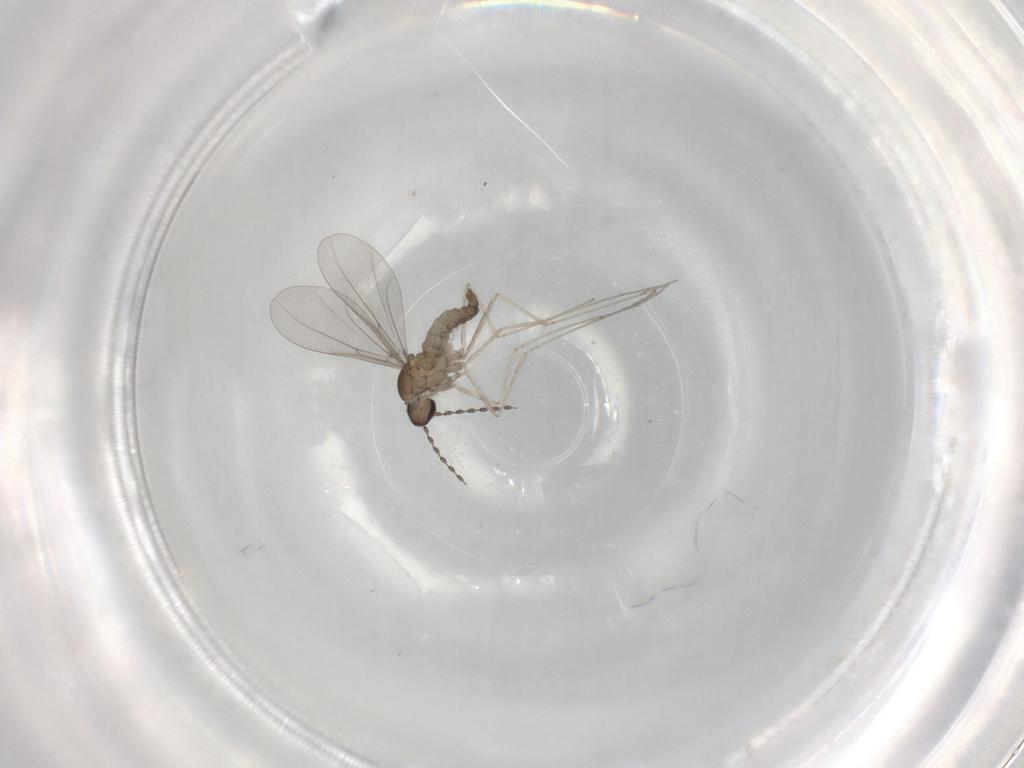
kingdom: Animalia
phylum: Arthropoda
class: Insecta
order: Diptera
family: Cecidomyiidae
